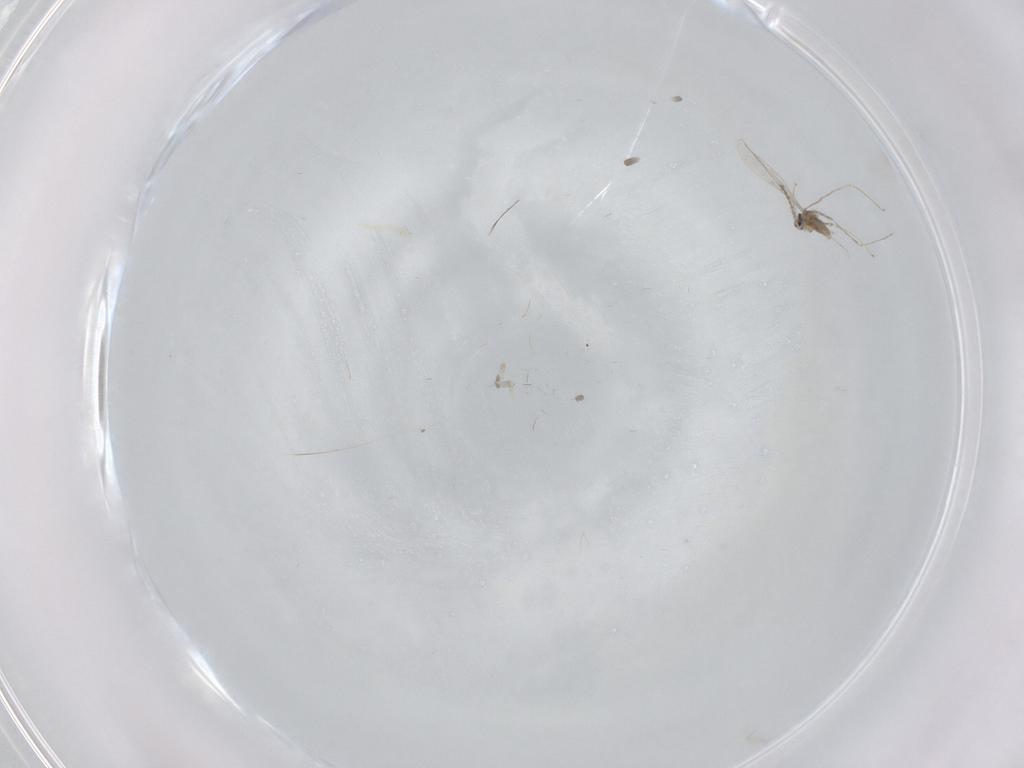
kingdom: Animalia
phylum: Arthropoda
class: Insecta
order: Diptera
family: Cecidomyiidae
